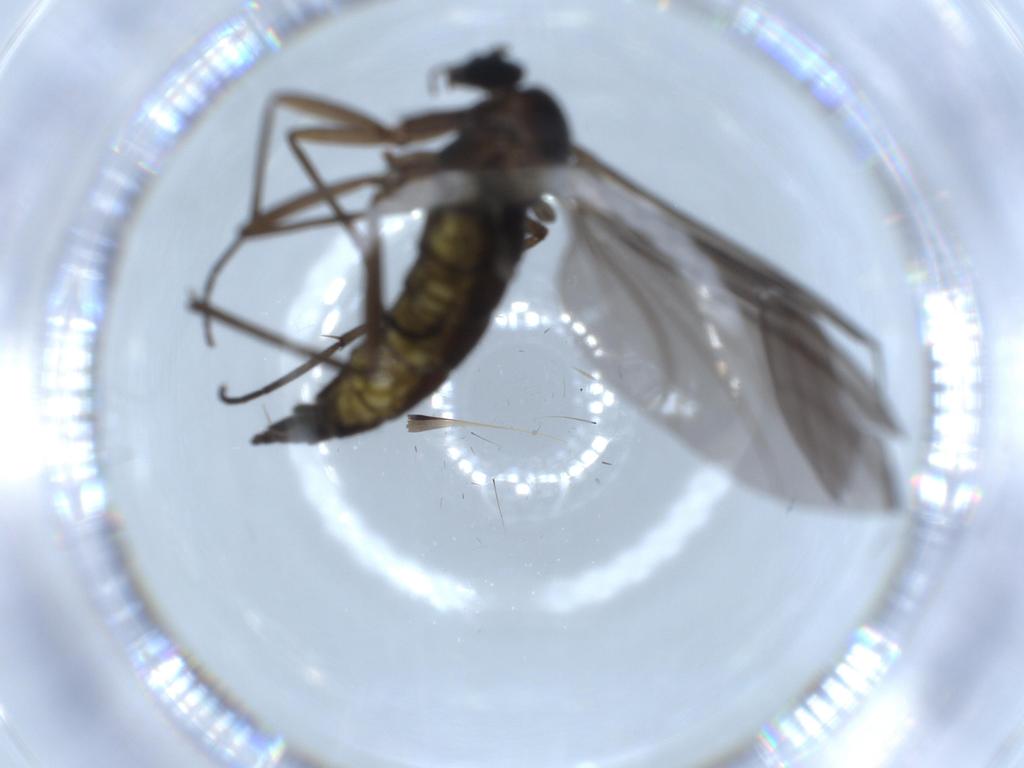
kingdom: Animalia
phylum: Arthropoda
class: Insecta
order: Diptera
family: Sciaridae
